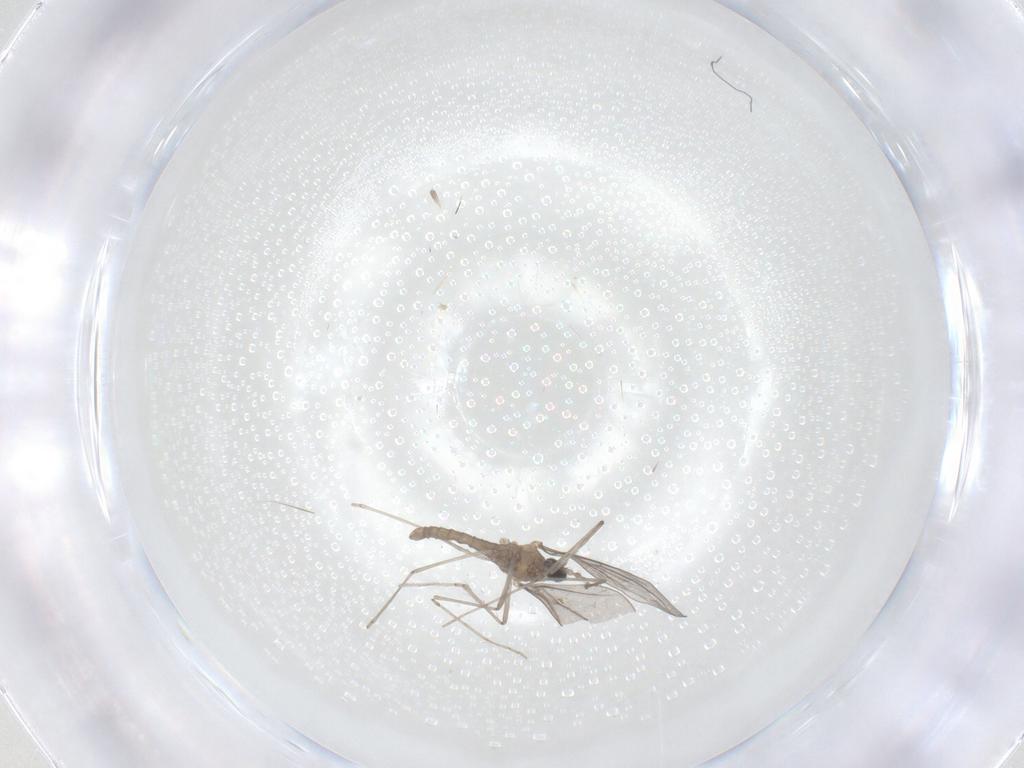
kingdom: Animalia
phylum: Arthropoda
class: Insecta
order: Diptera
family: Cecidomyiidae
